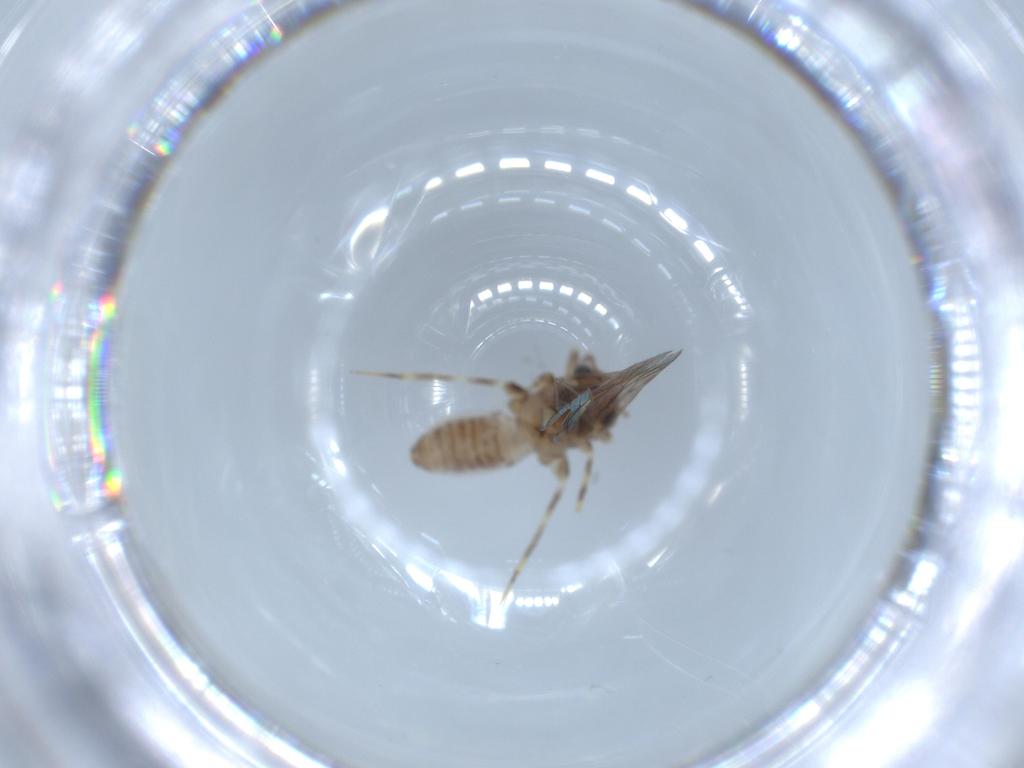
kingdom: Animalia
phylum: Arthropoda
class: Insecta
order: Psocodea
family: Lepidopsocidae
